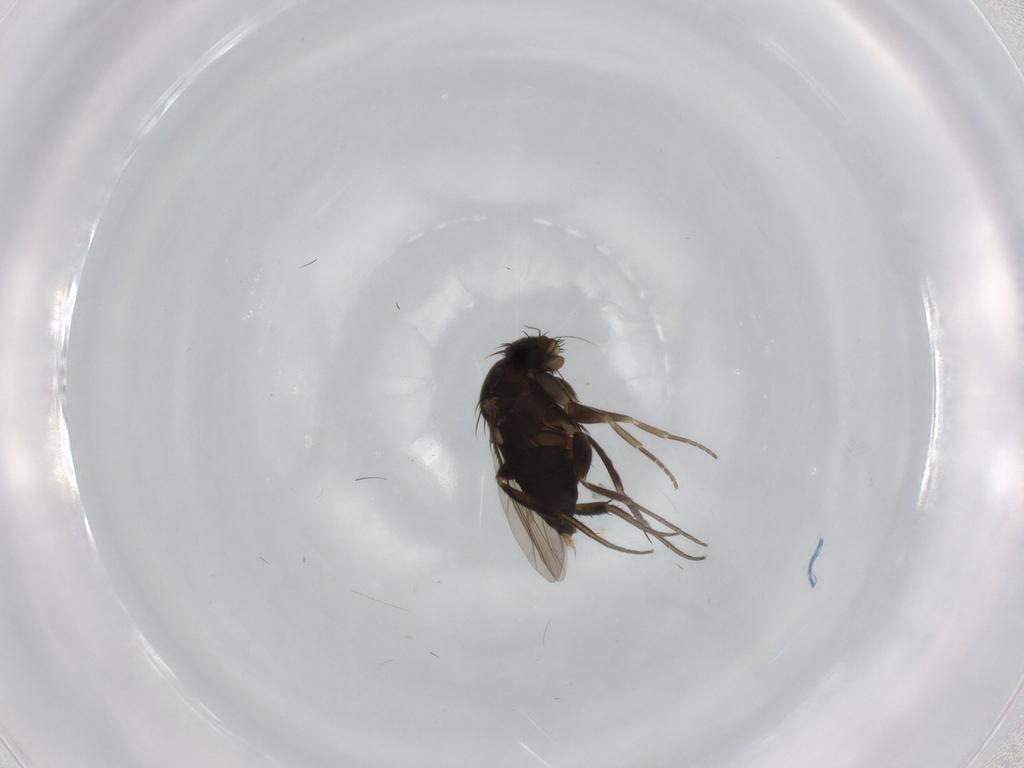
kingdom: Animalia
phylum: Arthropoda
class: Insecta
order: Diptera
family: Phoridae
